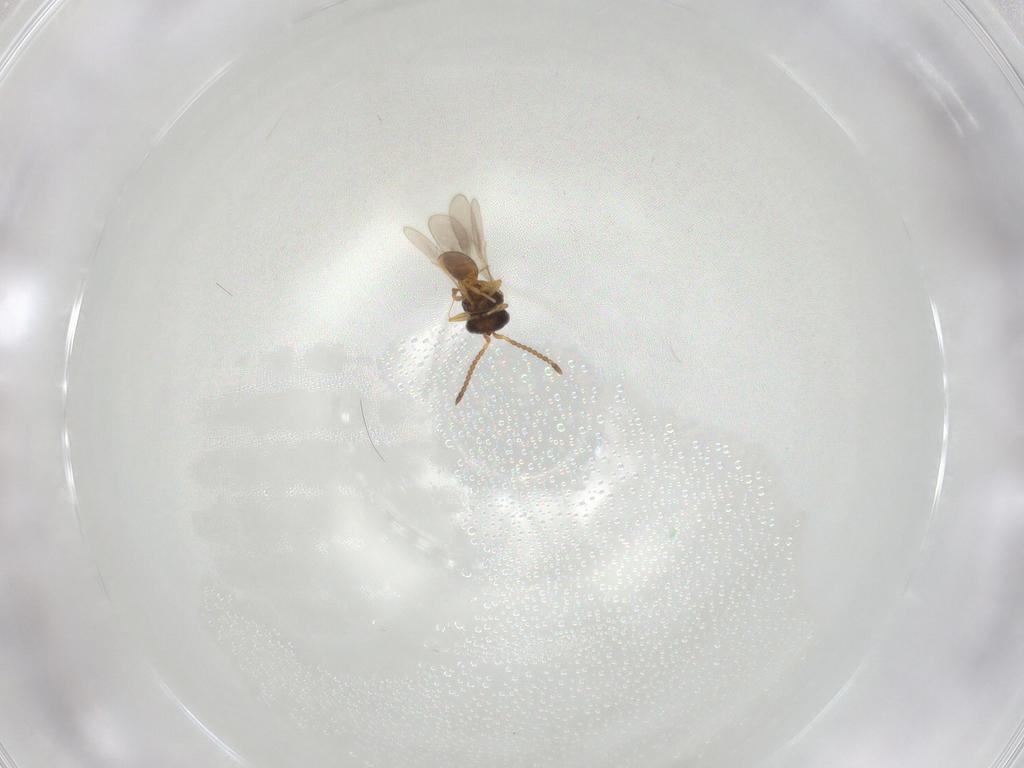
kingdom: Animalia
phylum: Arthropoda
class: Insecta
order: Hymenoptera
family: Scelionidae
